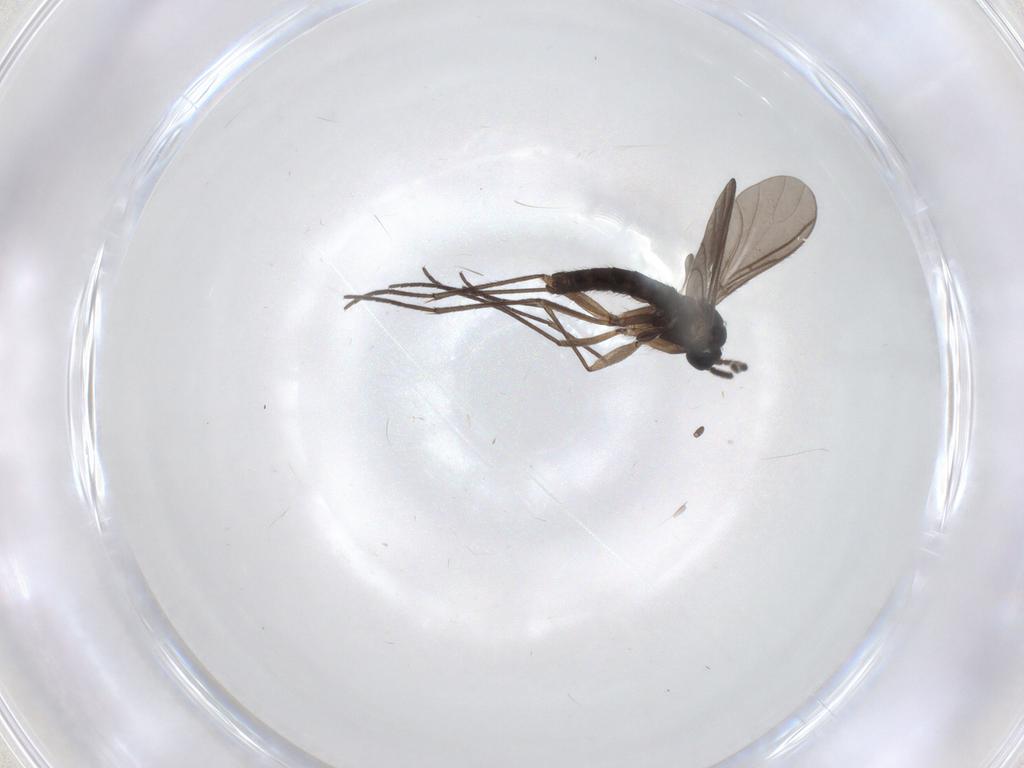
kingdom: Animalia
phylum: Arthropoda
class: Insecta
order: Diptera
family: Sciaridae
